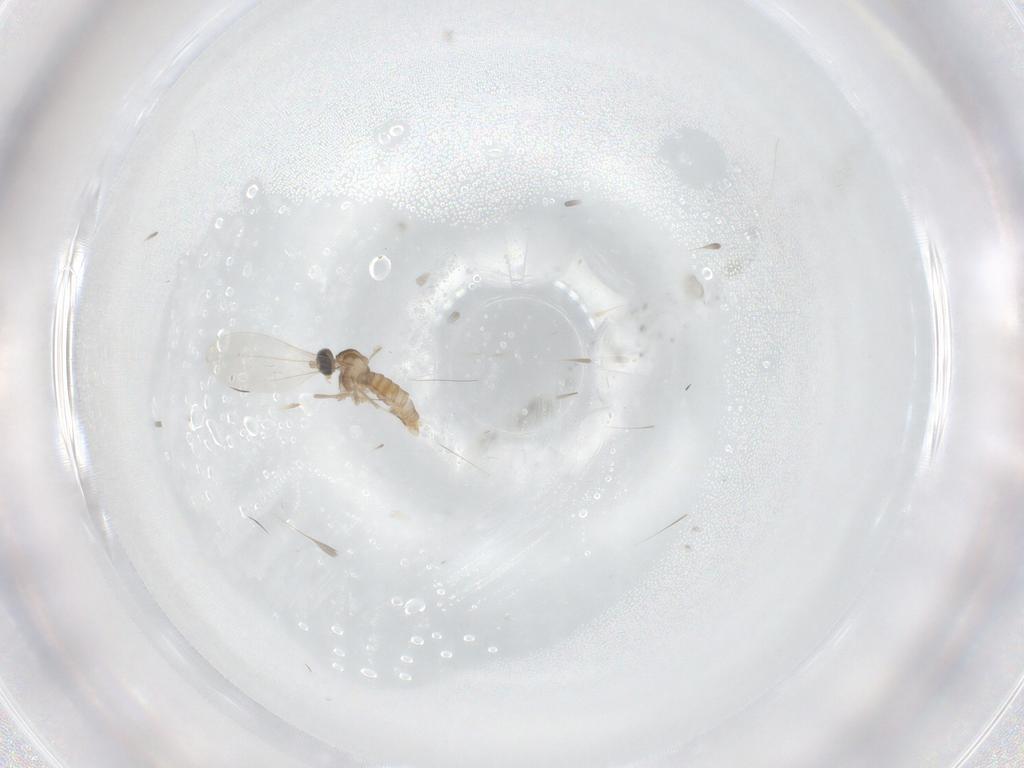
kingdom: Animalia
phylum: Arthropoda
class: Insecta
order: Diptera
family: Cecidomyiidae
